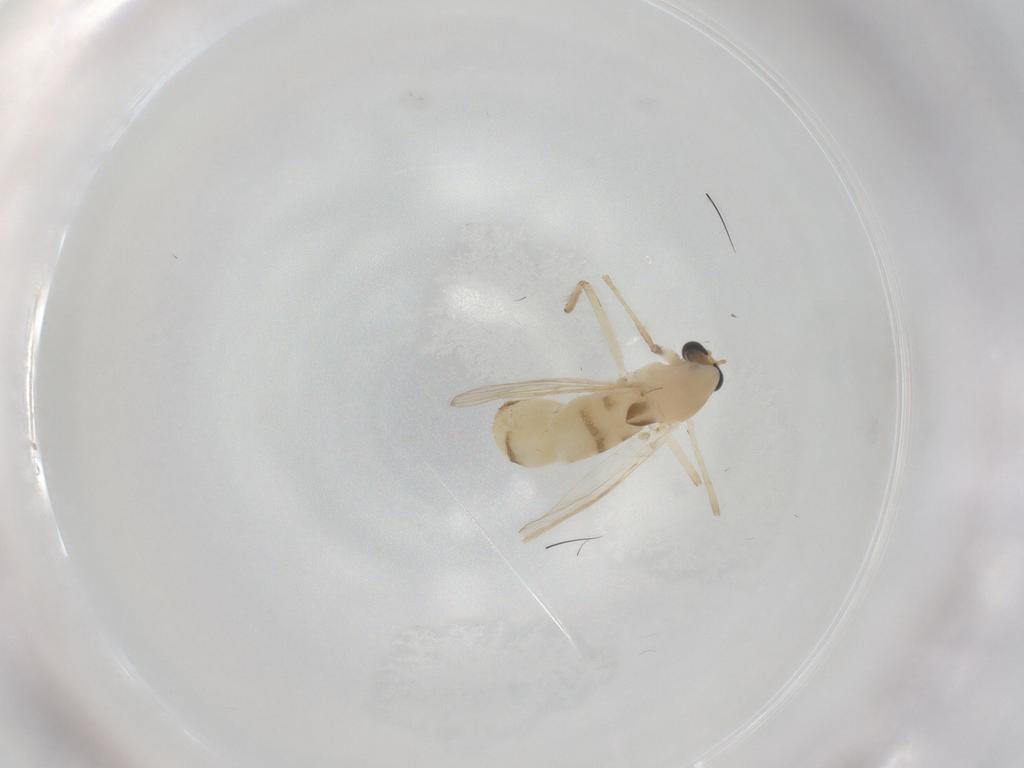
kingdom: Animalia
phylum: Arthropoda
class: Insecta
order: Diptera
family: Chironomidae
